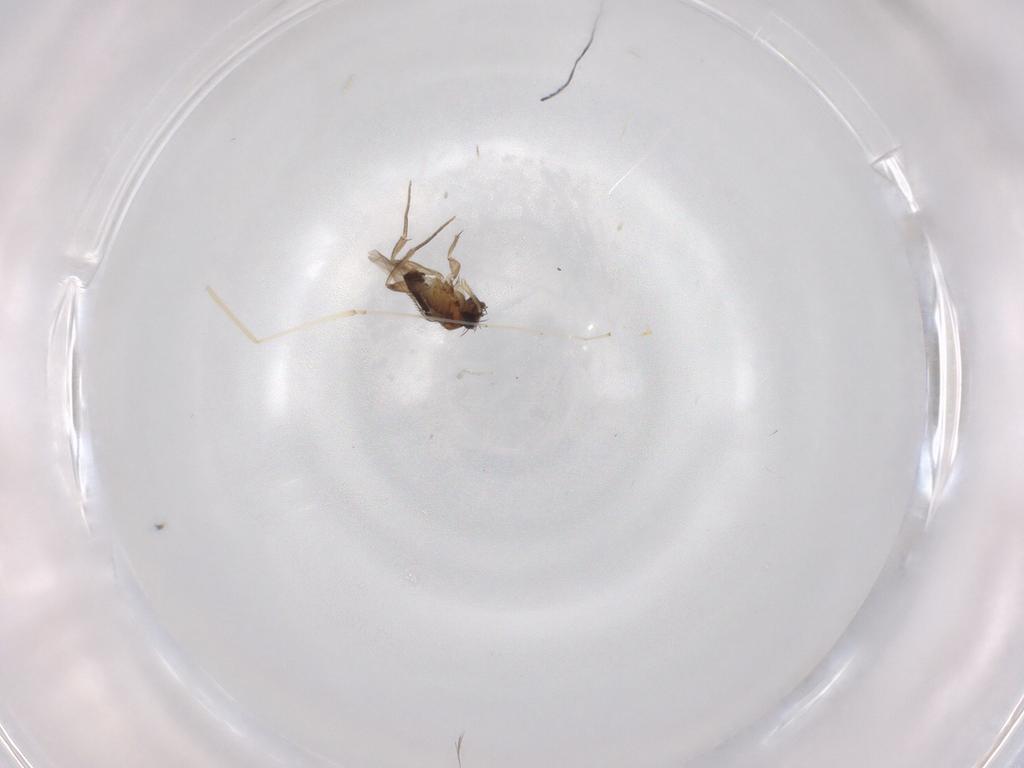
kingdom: Animalia
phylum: Arthropoda
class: Insecta
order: Diptera
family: Phoridae
